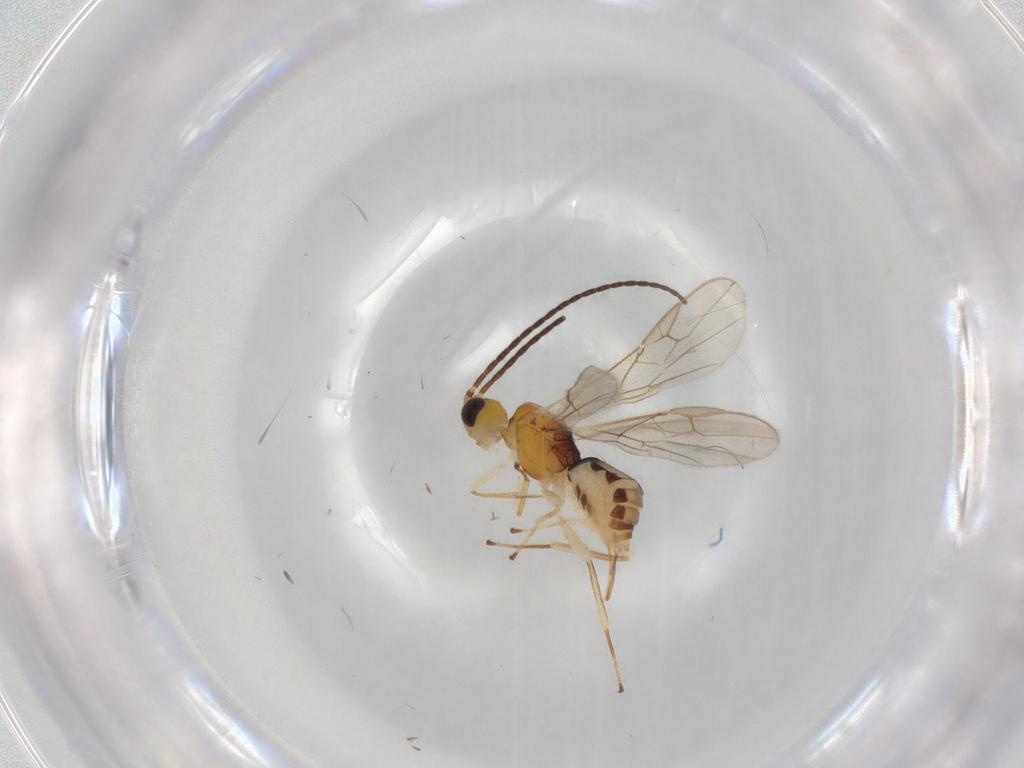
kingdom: Animalia
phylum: Arthropoda
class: Insecta
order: Hymenoptera
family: Braconidae
